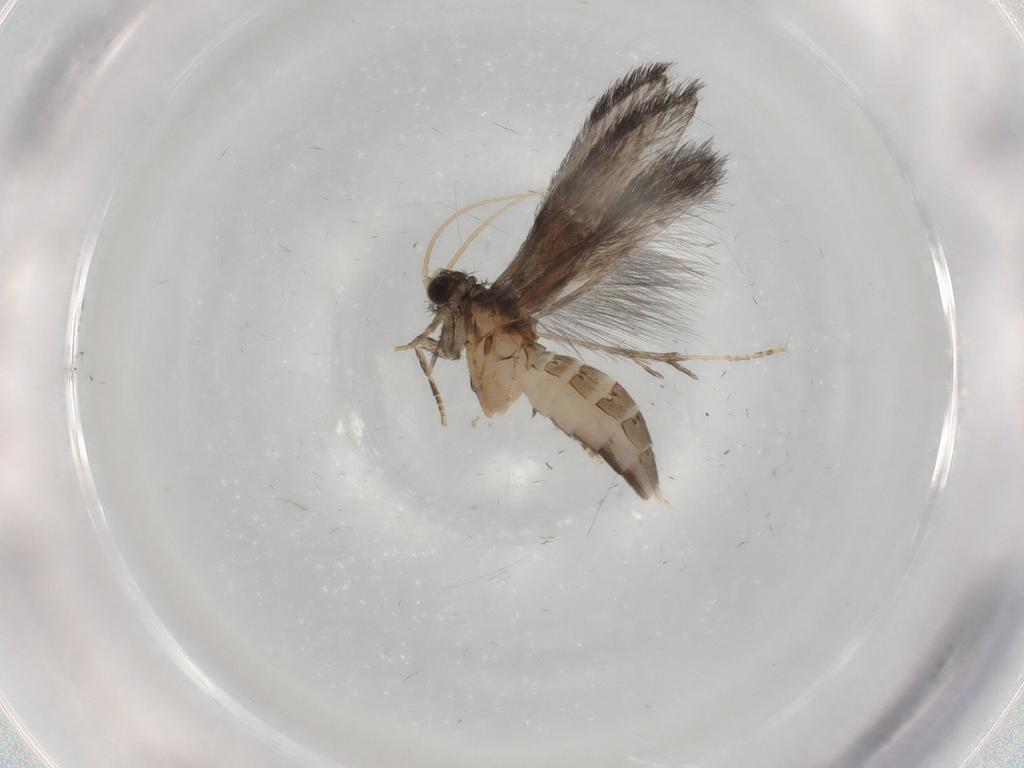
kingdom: Animalia
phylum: Arthropoda
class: Insecta
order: Trichoptera
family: Hydroptilidae
